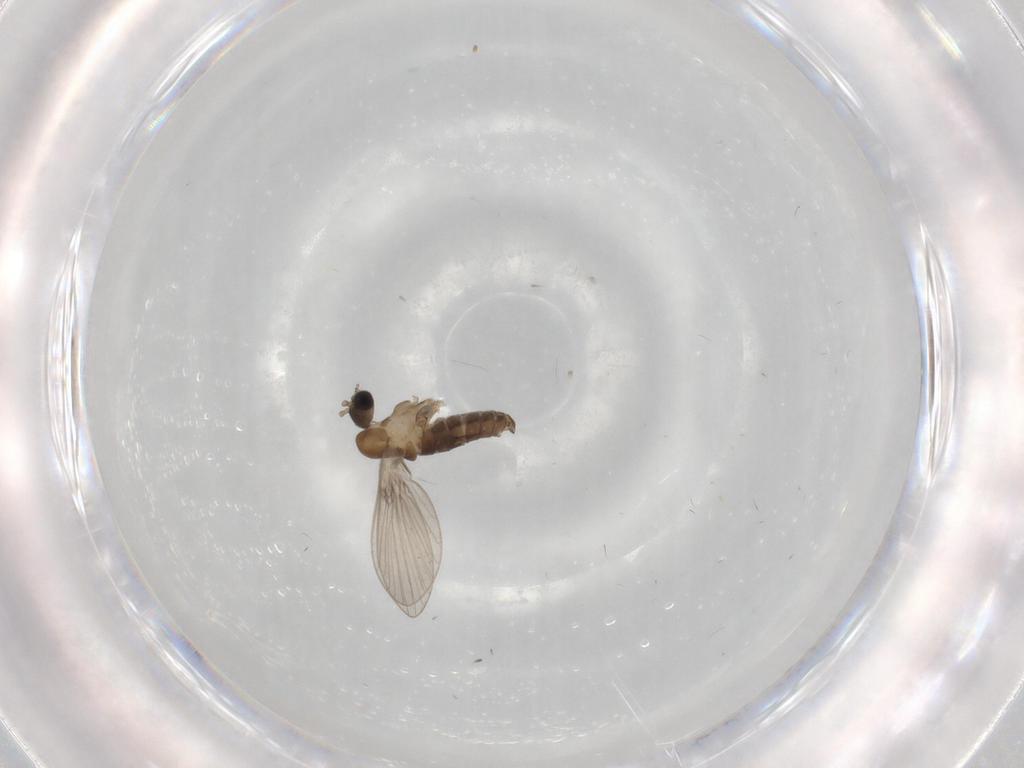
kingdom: Animalia
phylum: Arthropoda
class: Insecta
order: Diptera
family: Psychodidae
